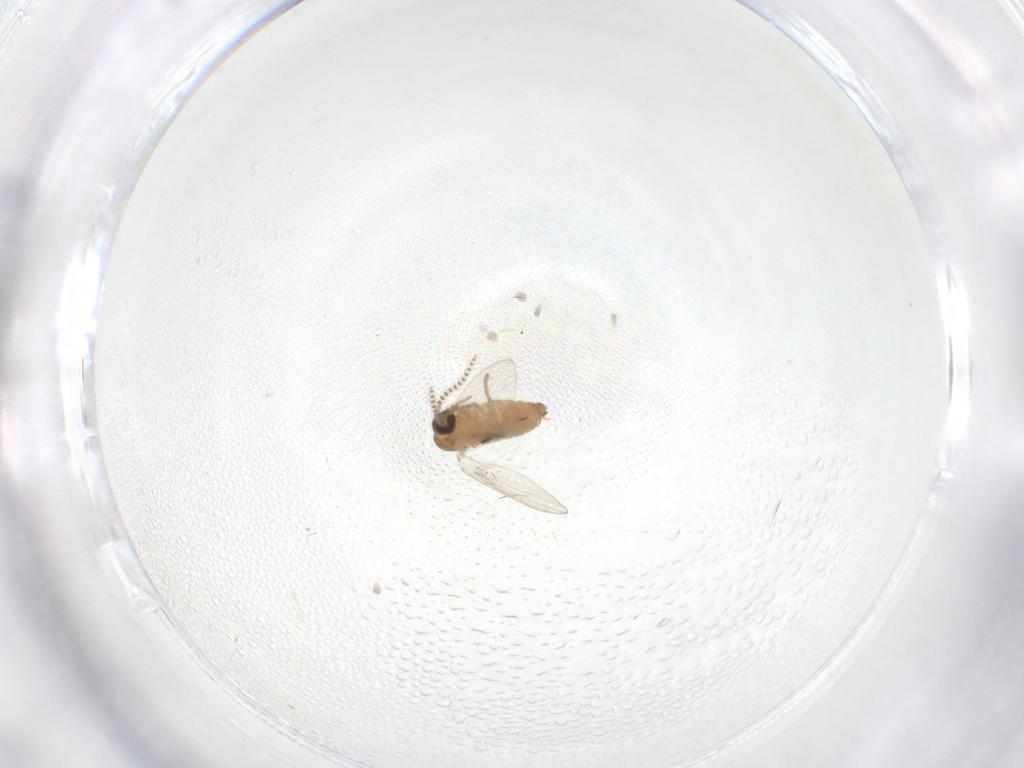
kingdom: Animalia
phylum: Arthropoda
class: Insecta
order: Diptera
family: Psychodidae
